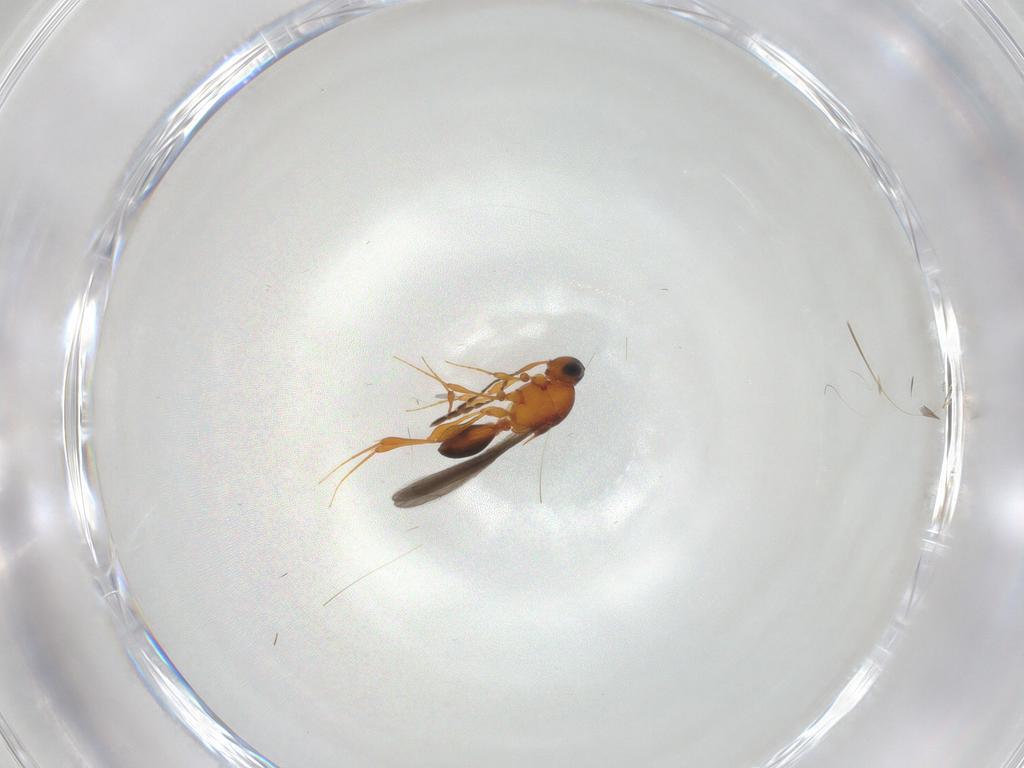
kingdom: Animalia
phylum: Arthropoda
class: Insecta
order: Hymenoptera
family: Platygastridae
